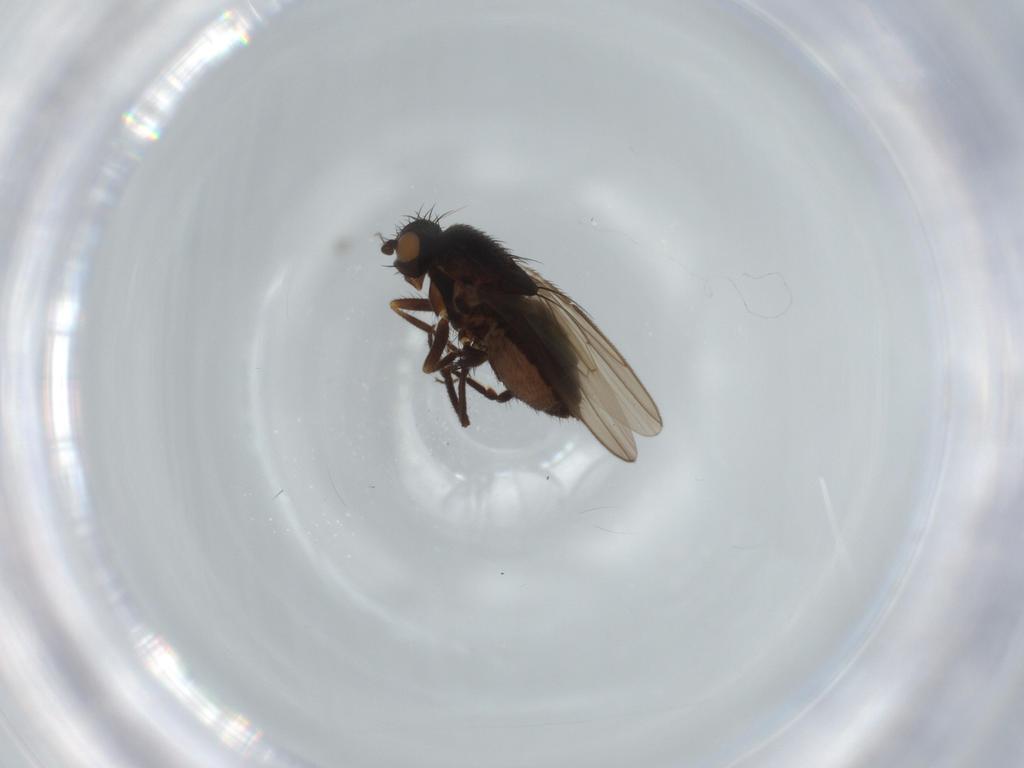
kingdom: Animalia
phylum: Arthropoda
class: Insecta
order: Diptera
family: Sphaeroceridae
